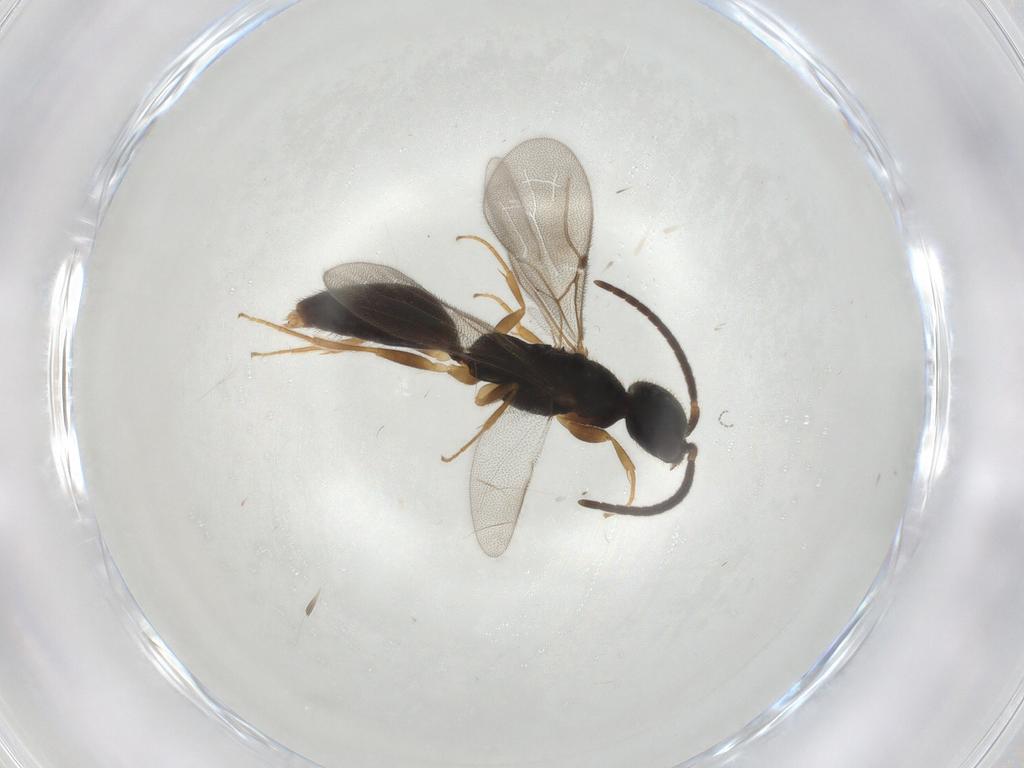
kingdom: Animalia
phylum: Arthropoda
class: Insecta
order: Hymenoptera
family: Bethylidae
